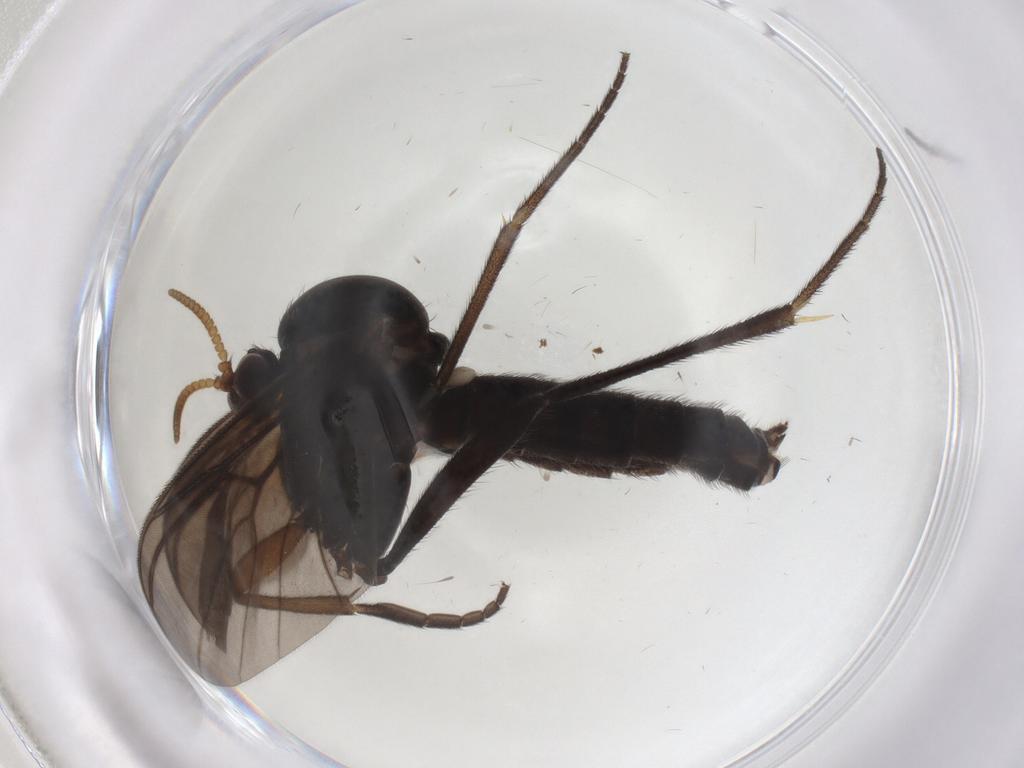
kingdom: Animalia
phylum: Arthropoda
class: Insecta
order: Diptera
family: Mycetophilidae
